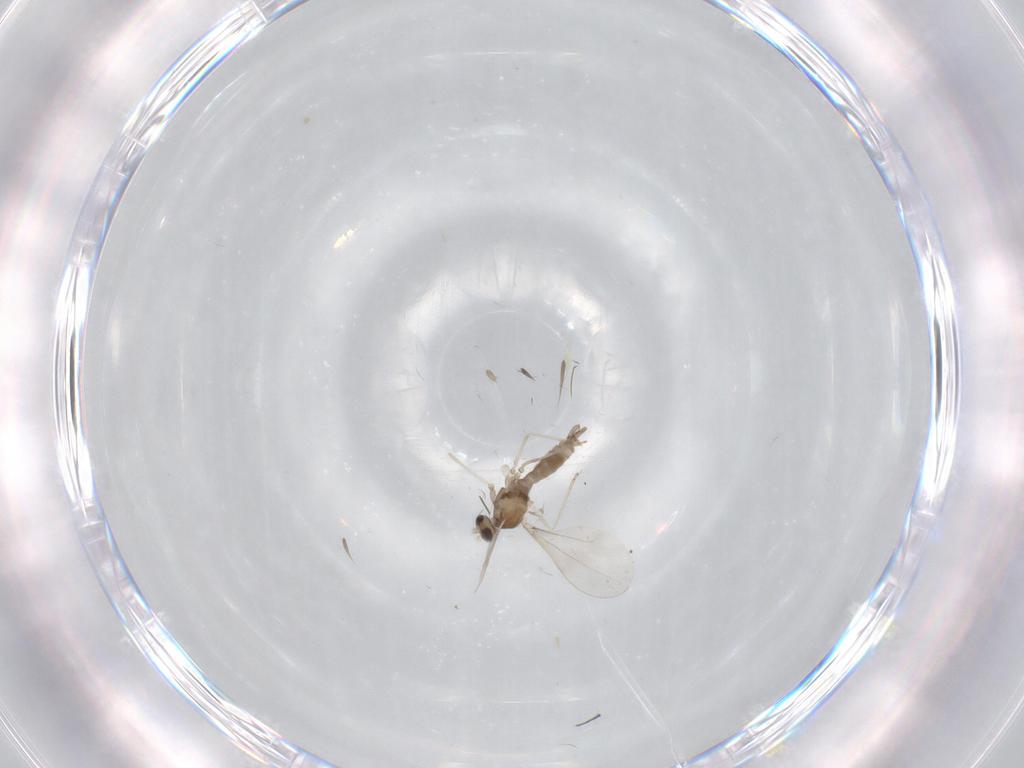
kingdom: Animalia
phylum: Arthropoda
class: Insecta
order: Diptera
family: Cecidomyiidae
